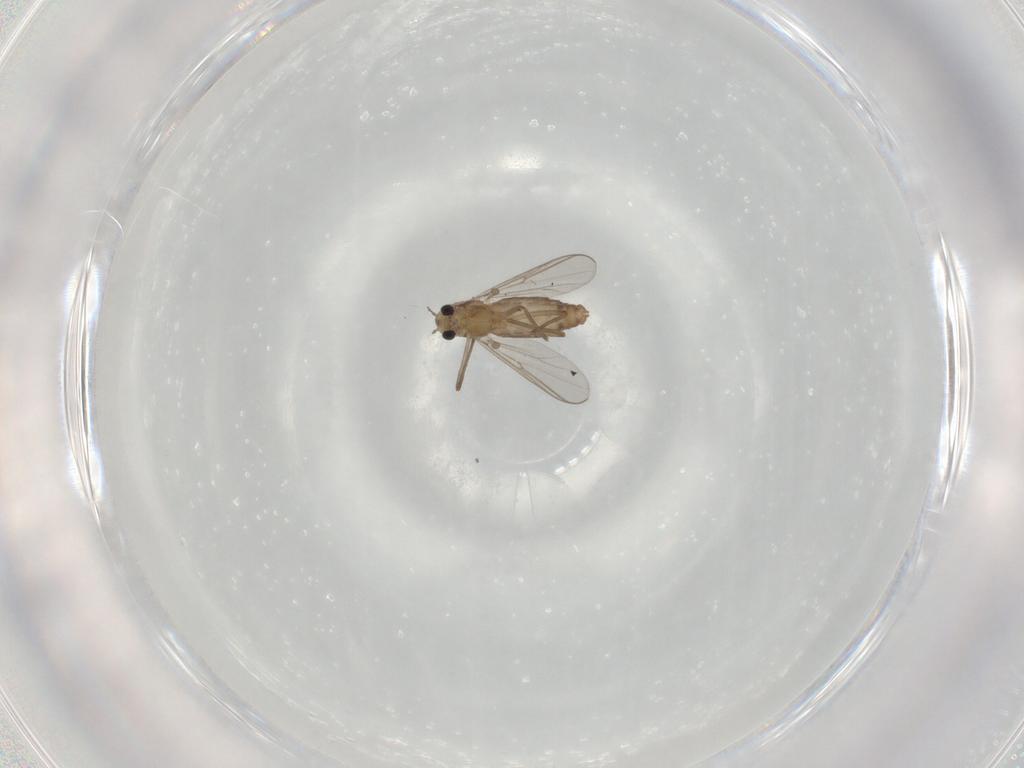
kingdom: Animalia
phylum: Arthropoda
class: Insecta
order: Diptera
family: Chironomidae
